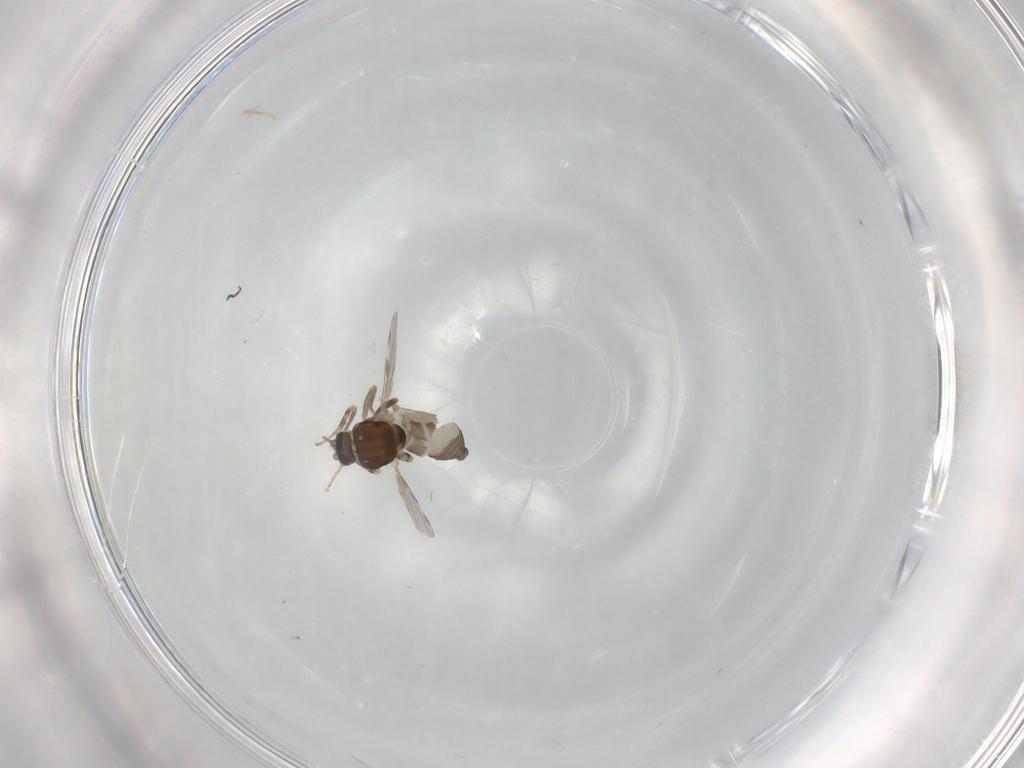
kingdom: Animalia
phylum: Arthropoda
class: Insecta
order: Diptera
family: Ceratopogonidae
